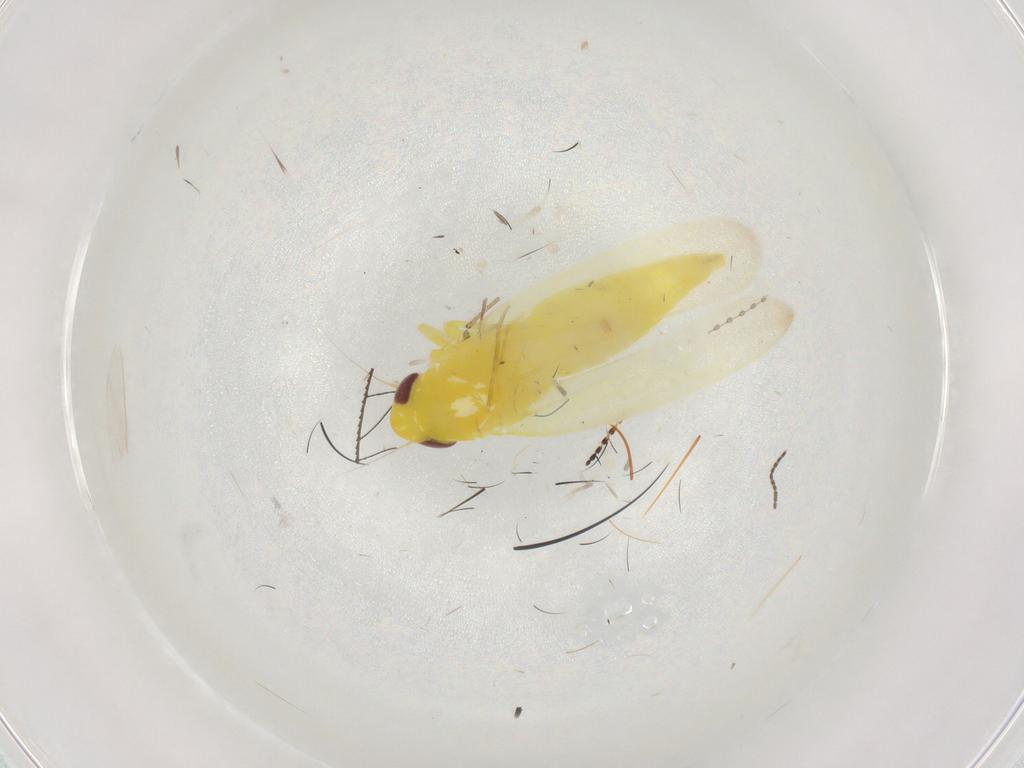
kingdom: Animalia
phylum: Arthropoda
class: Insecta
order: Hemiptera
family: Cicadellidae
